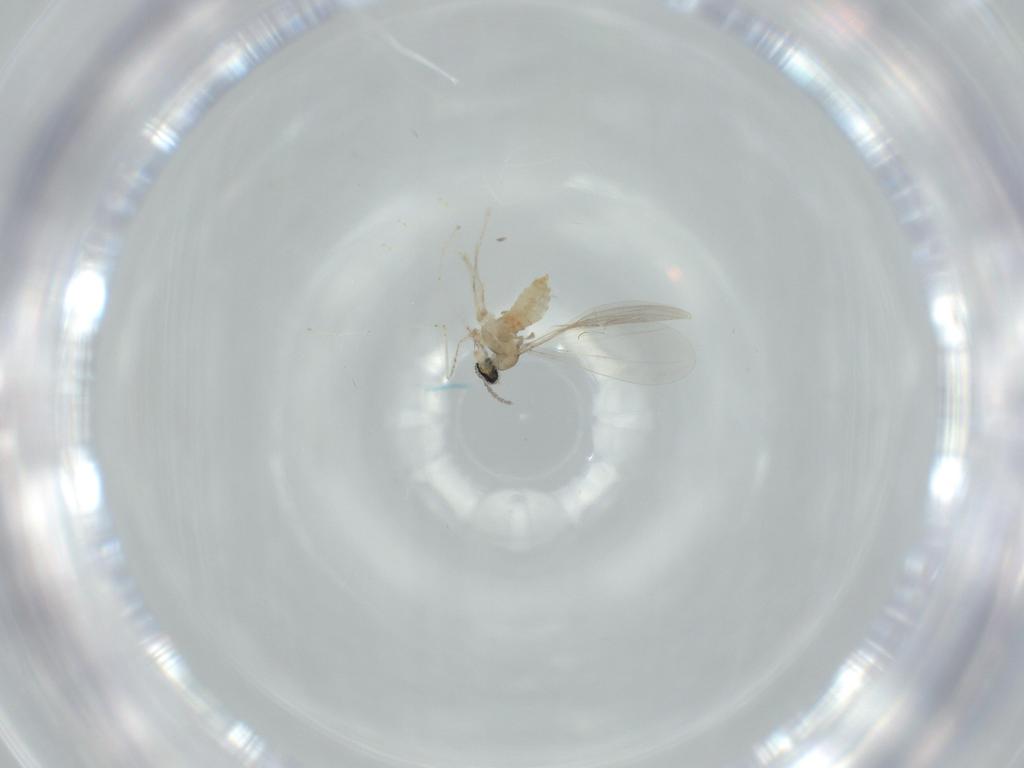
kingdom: Animalia
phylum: Arthropoda
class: Insecta
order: Diptera
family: Cecidomyiidae
